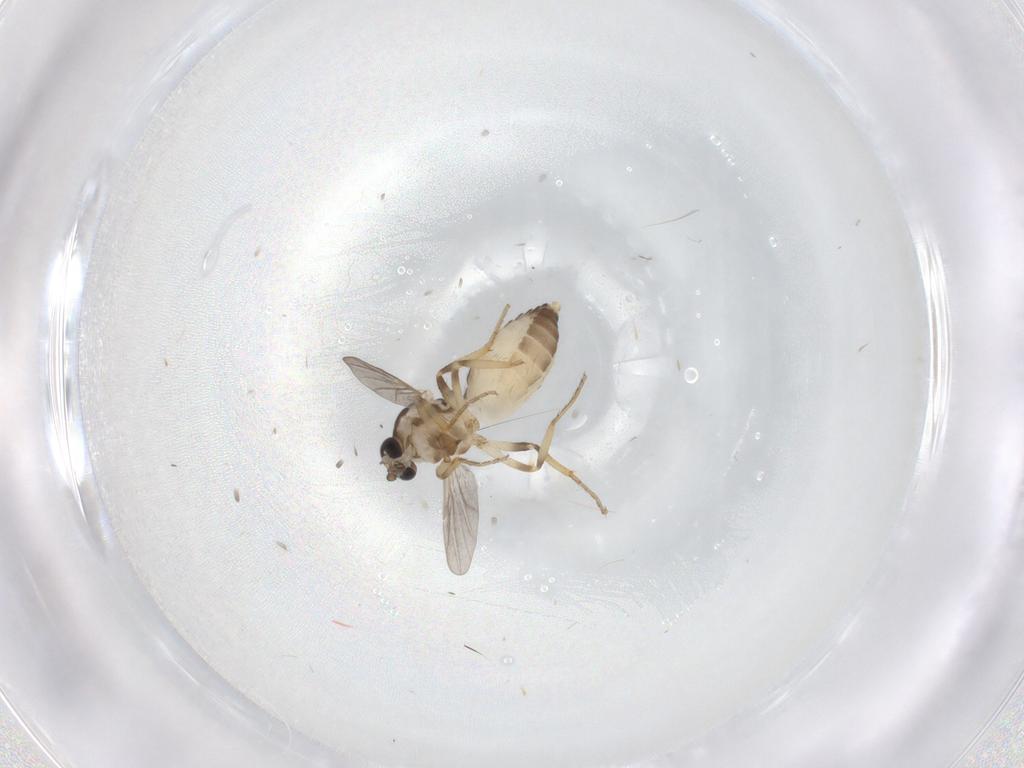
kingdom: Animalia
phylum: Arthropoda
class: Insecta
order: Diptera
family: Ceratopogonidae
